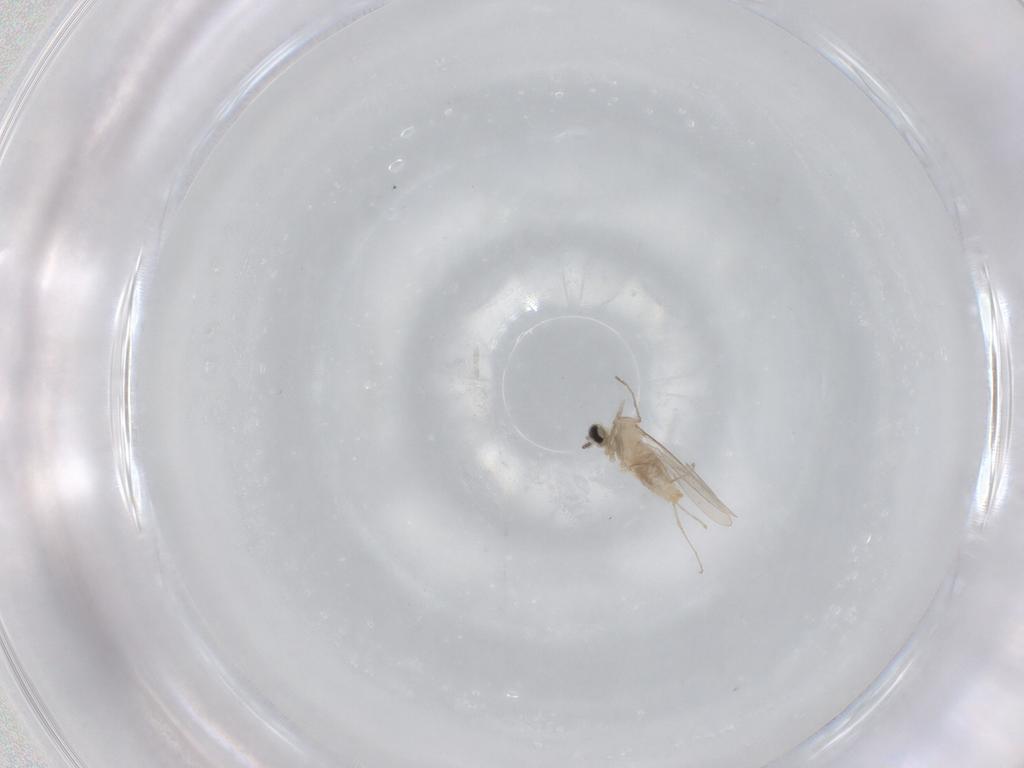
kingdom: Animalia
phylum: Arthropoda
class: Insecta
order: Diptera
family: Cecidomyiidae
